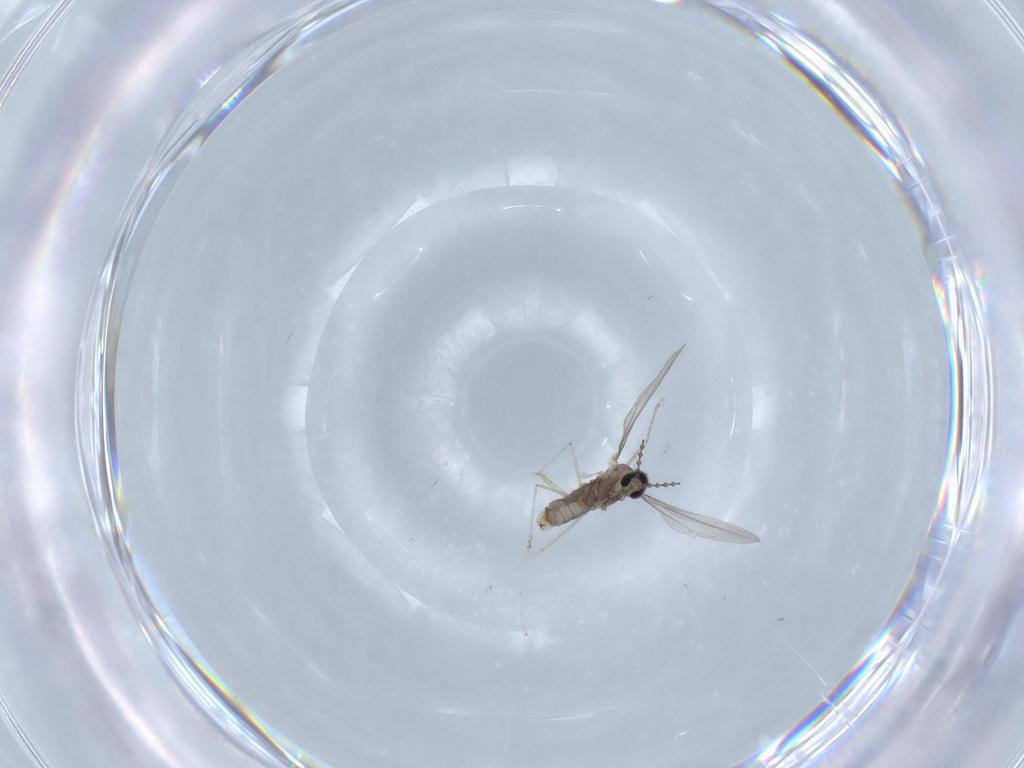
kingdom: Animalia
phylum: Arthropoda
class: Insecta
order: Diptera
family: Cecidomyiidae
